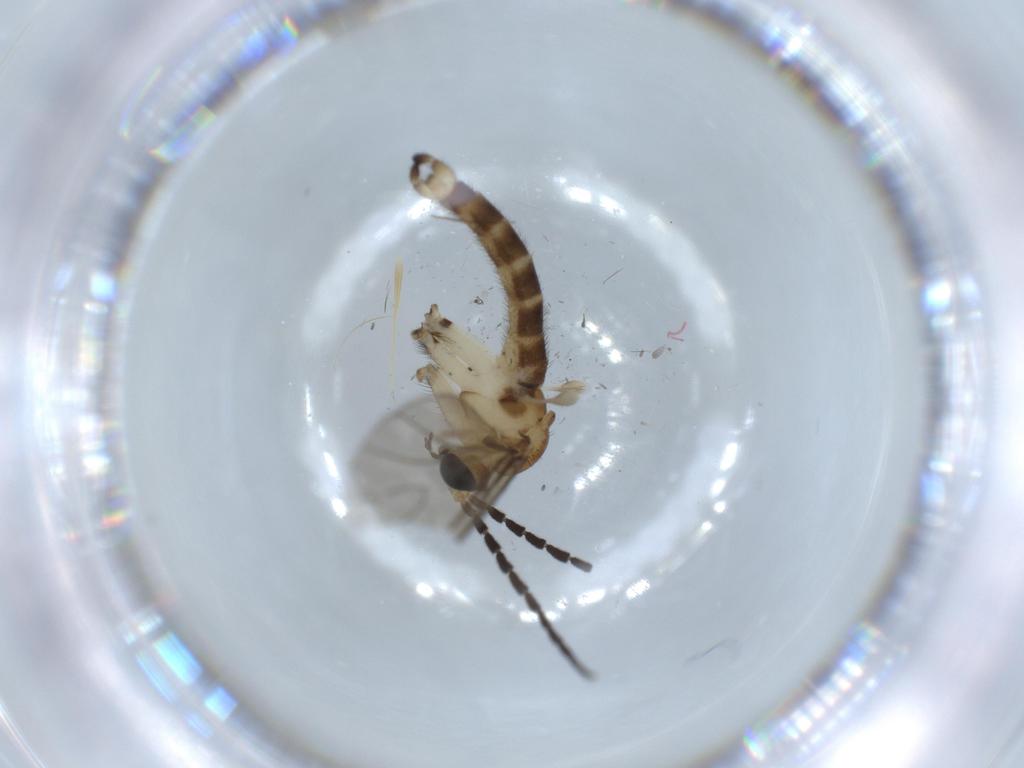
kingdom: Animalia
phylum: Arthropoda
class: Insecta
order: Diptera
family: Sciaridae
